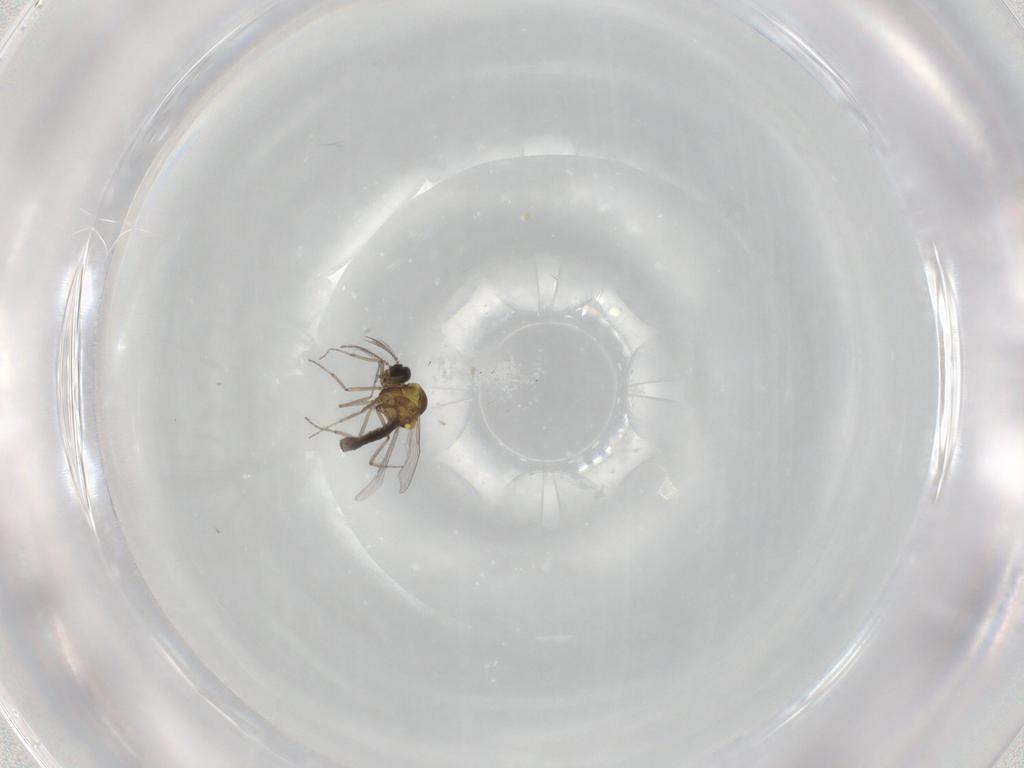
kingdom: Animalia
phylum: Arthropoda
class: Insecta
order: Diptera
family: Ceratopogonidae
